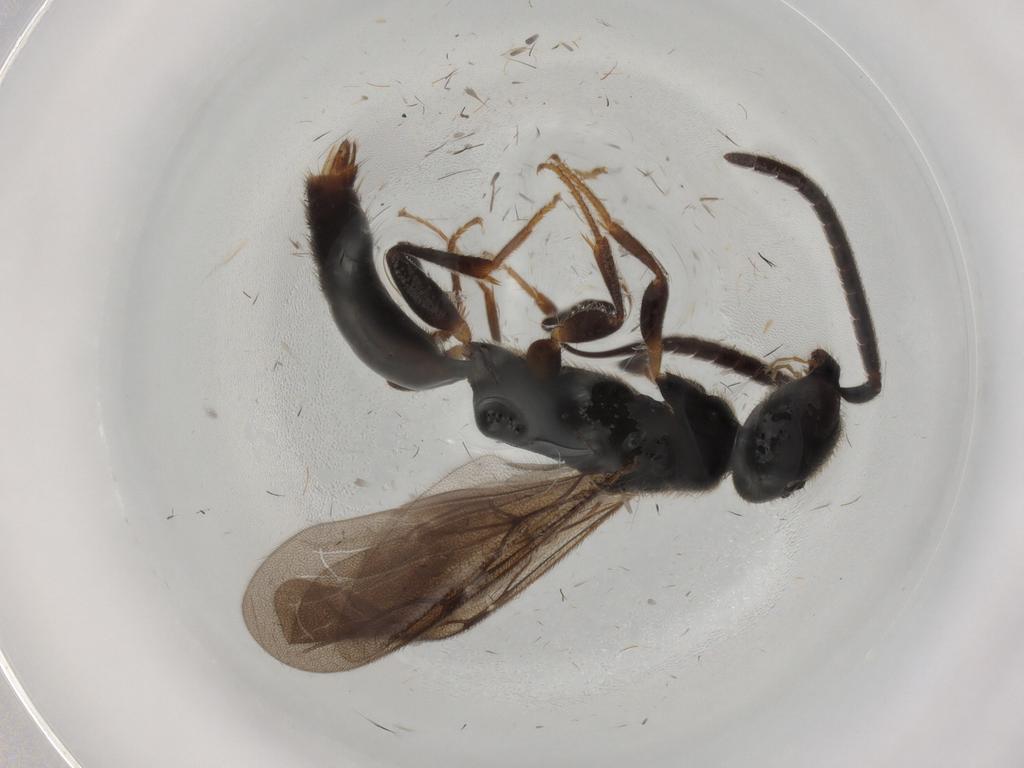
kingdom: Animalia
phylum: Arthropoda
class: Insecta
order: Hymenoptera
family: Bethylidae
